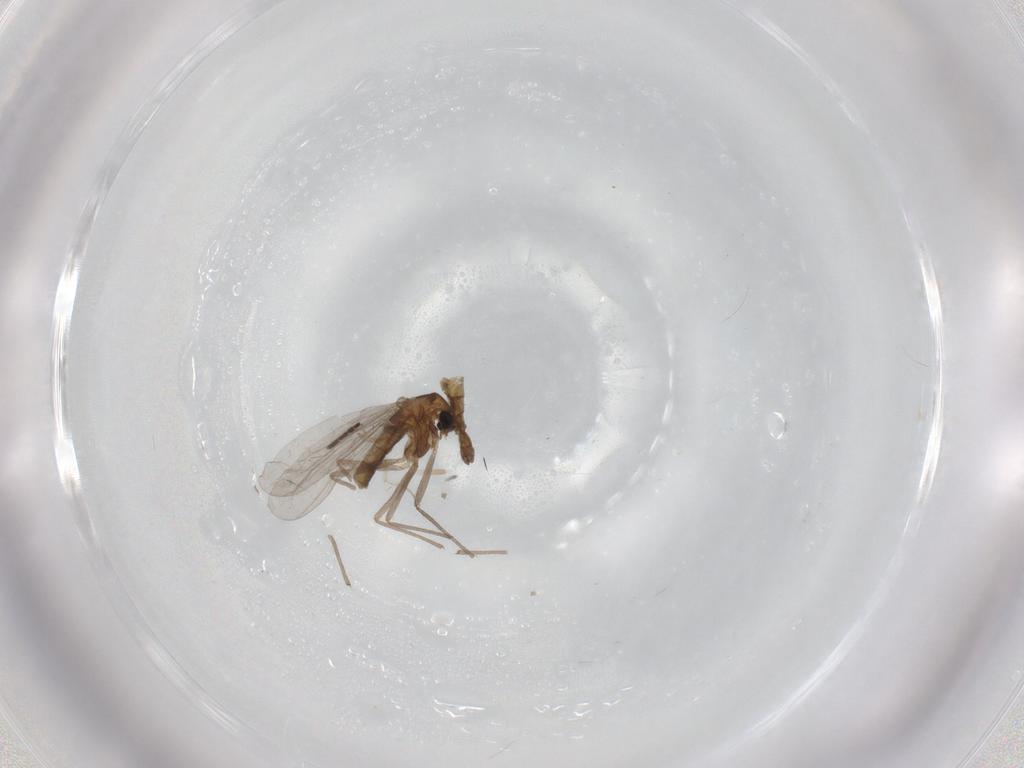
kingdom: Animalia
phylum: Arthropoda
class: Insecta
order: Diptera
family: Chironomidae
